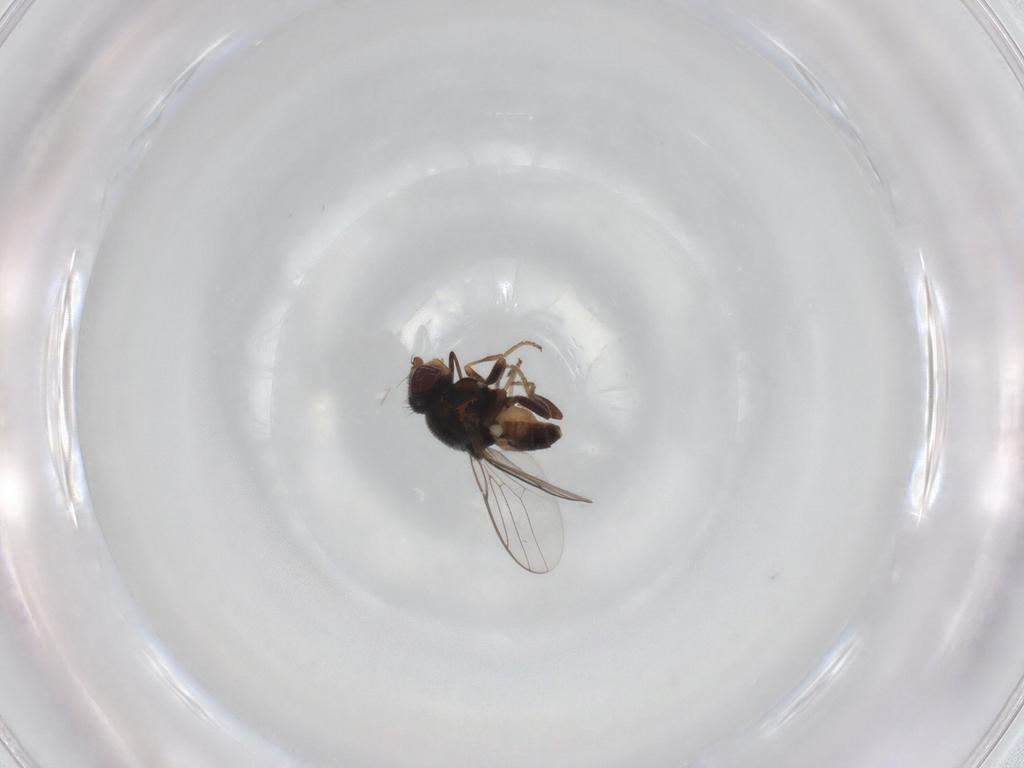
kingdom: Animalia
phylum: Arthropoda
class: Insecta
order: Diptera
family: Chloropidae
